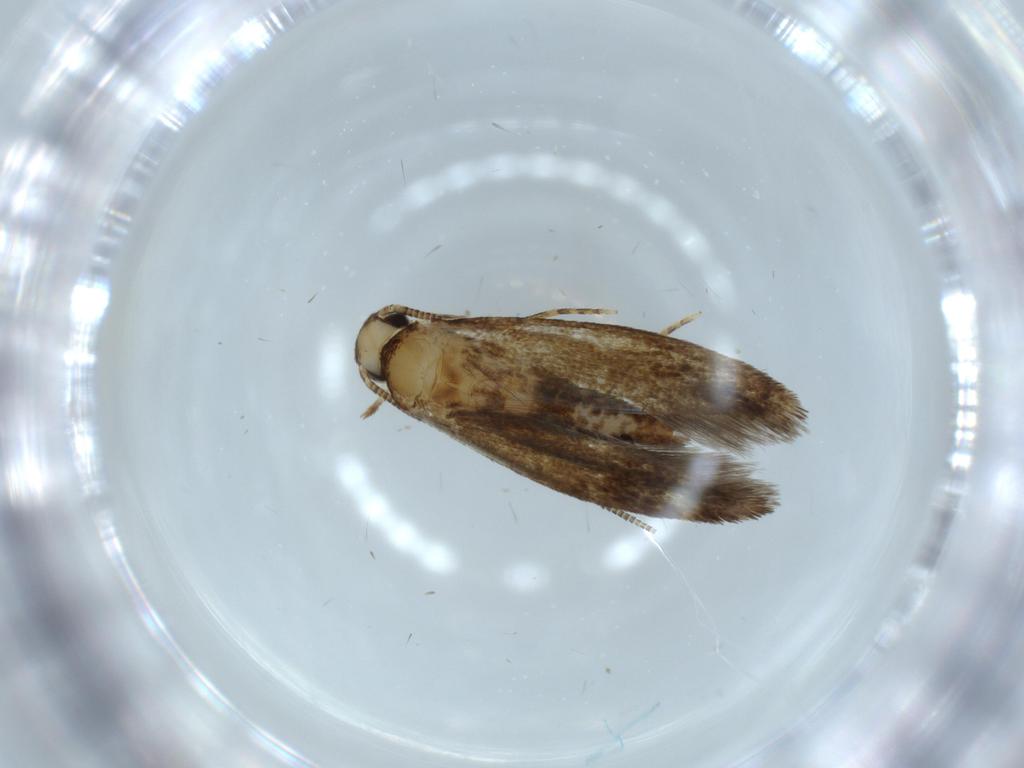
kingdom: Animalia
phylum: Arthropoda
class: Insecta
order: Lepidoptera
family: Tineidae
